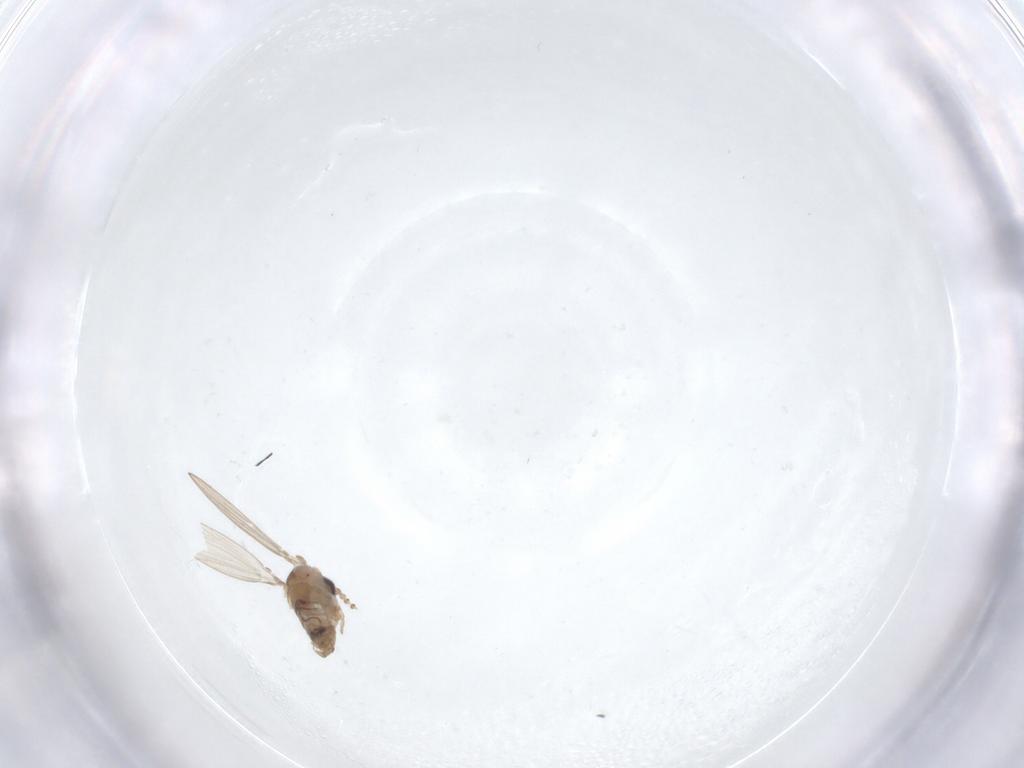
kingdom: Animalia
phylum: Arthropoda
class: Insecta
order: Diptera
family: Psychodidae
